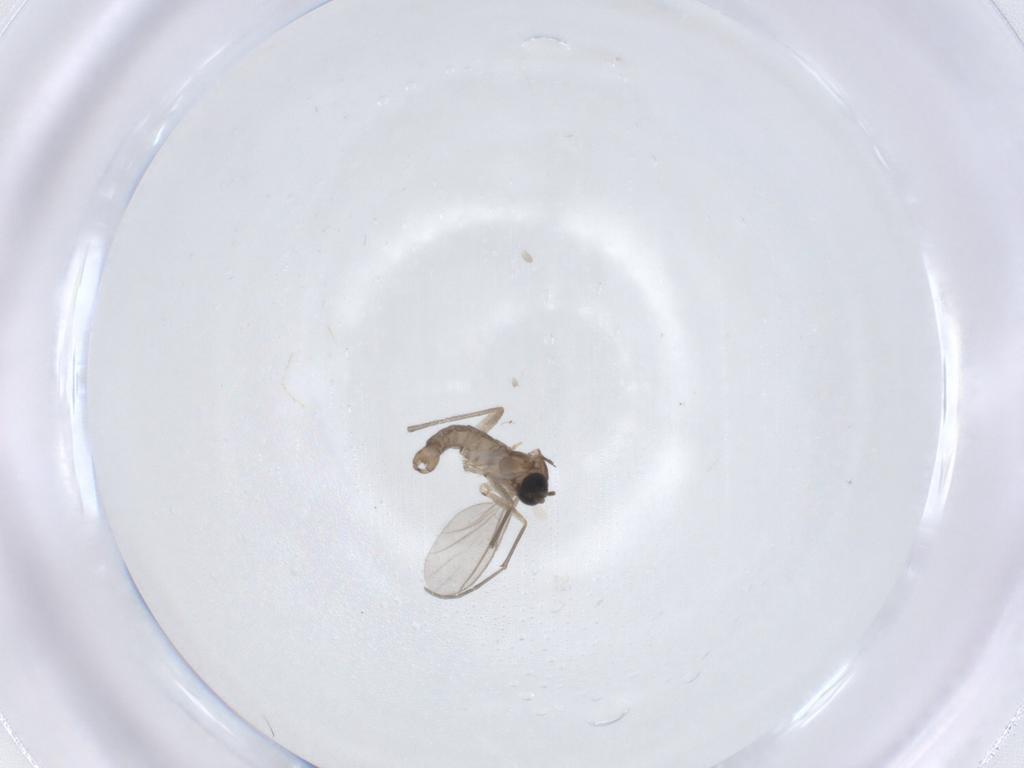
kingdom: Animalia
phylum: Arthropoda
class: Insecta
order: Diptera
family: Sciaridae
